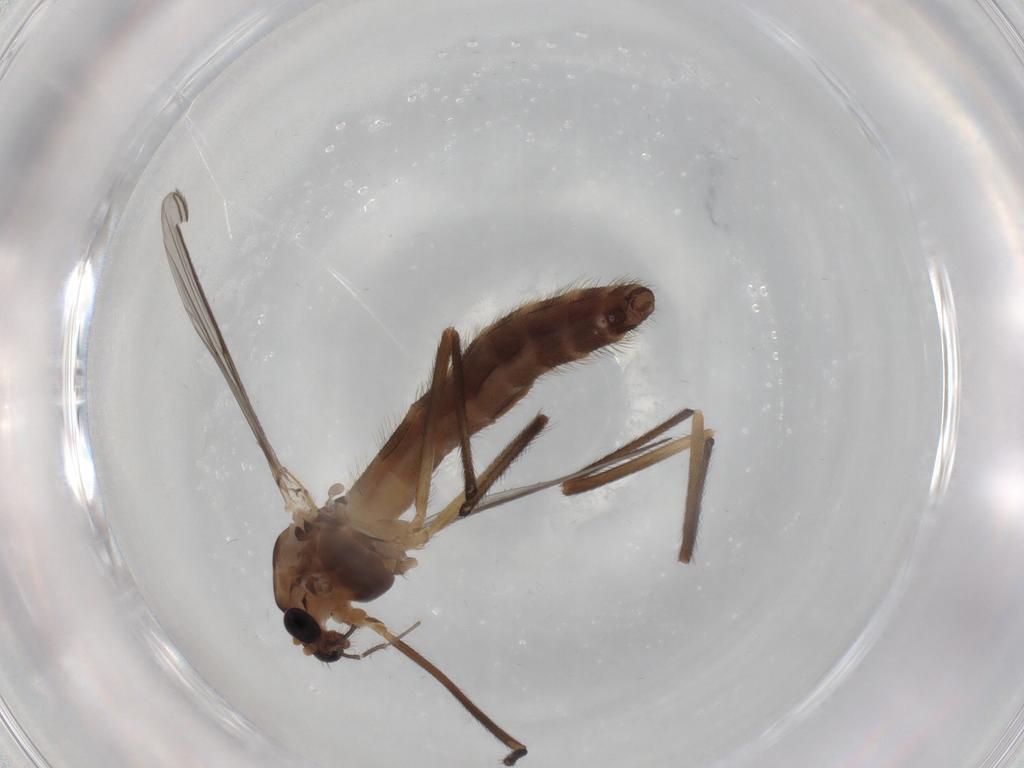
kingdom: Animalia
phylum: Arthropoda
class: Insecta
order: Diptera
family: Chironomidae
